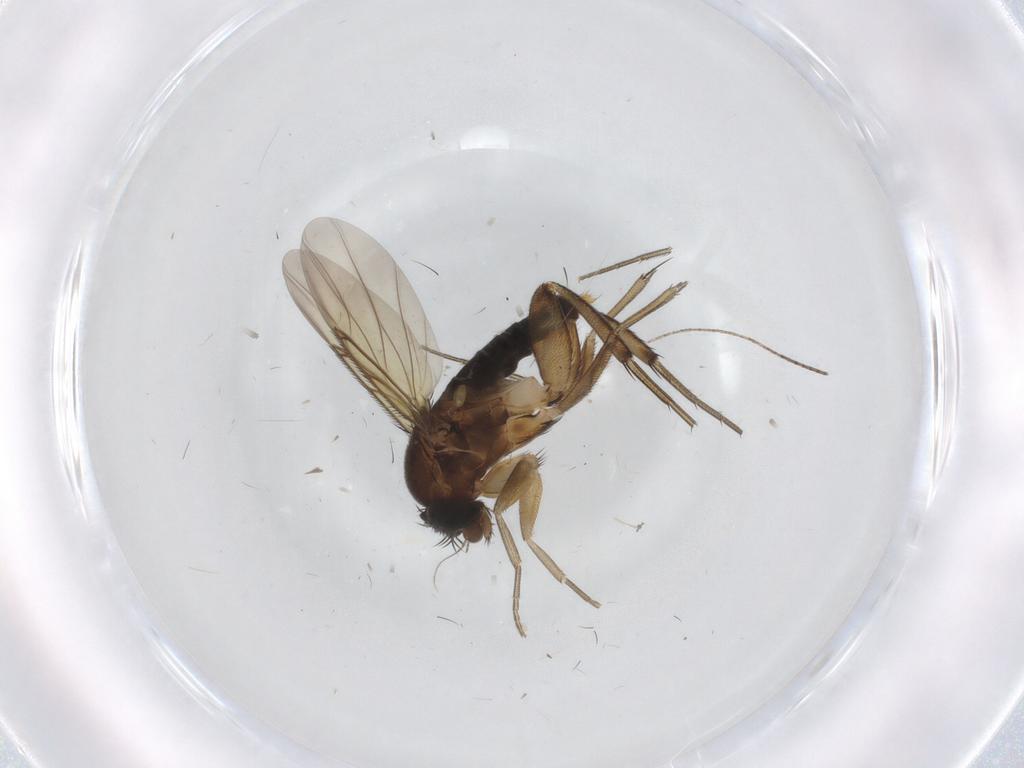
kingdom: Animalia
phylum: Arthropoda
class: Insecta
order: Diptera
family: Phoridae
